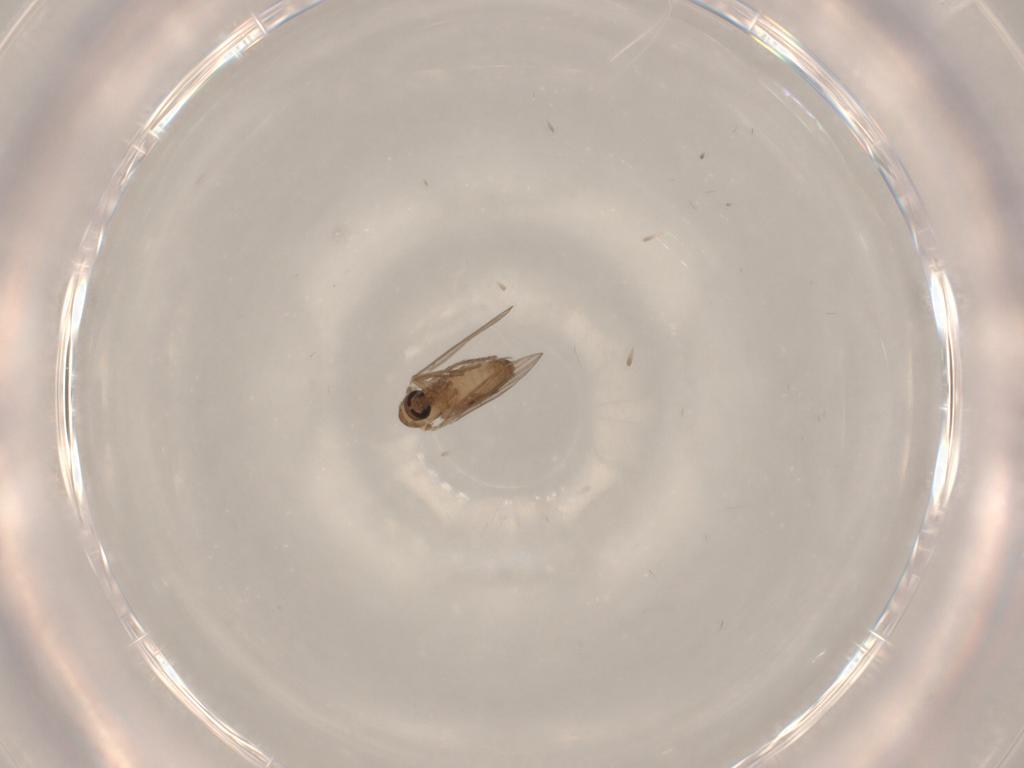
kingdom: Animalia
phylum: Arthropoda
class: Insecta
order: Diptera
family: Psychodidae
